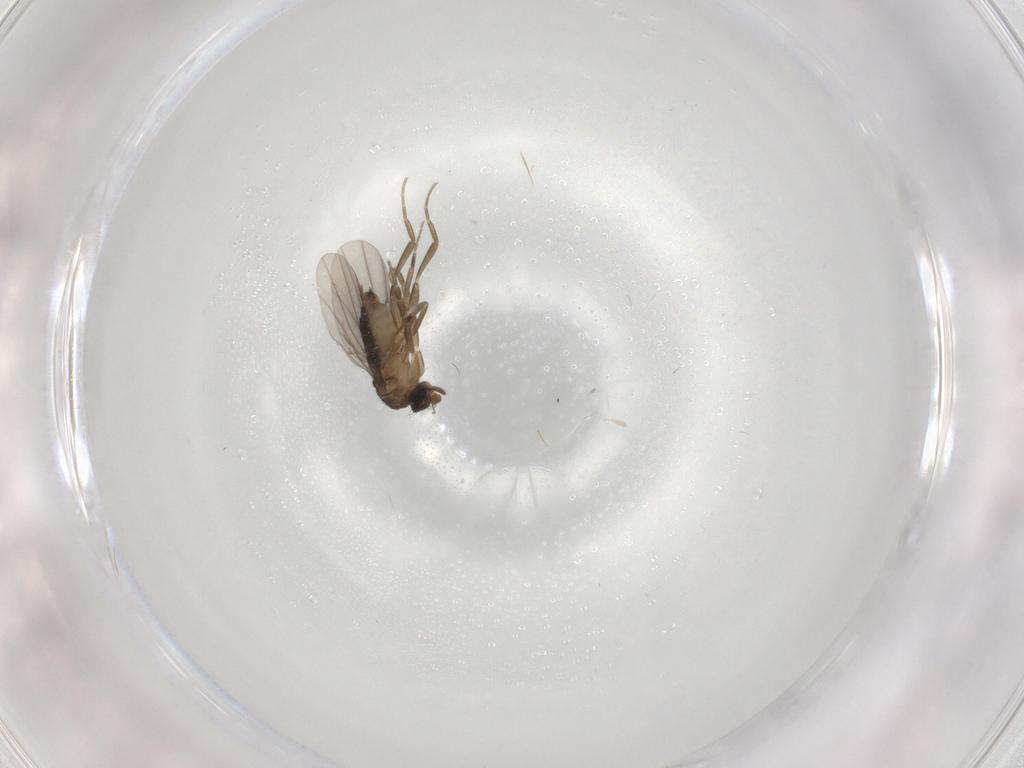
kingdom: Animalia
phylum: Arthropoda
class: Insecta
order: Diptera
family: Phoridae
